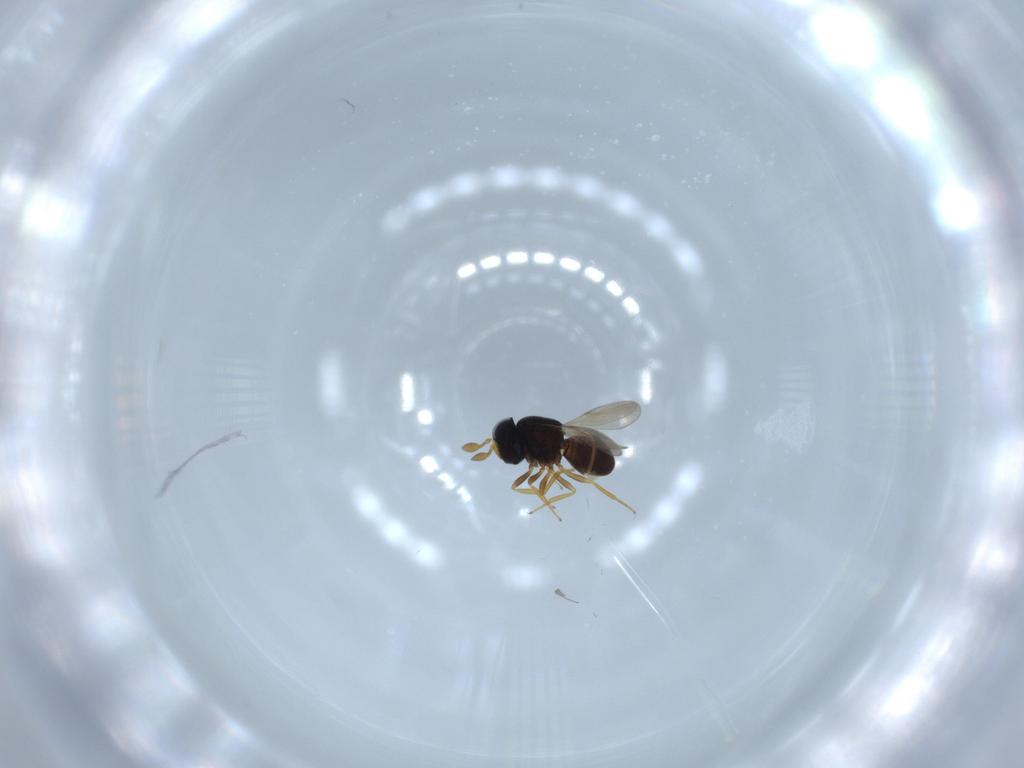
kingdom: Animalia
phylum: Arthropoda
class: Insecta
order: Hymenoptera
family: Scelionidae
